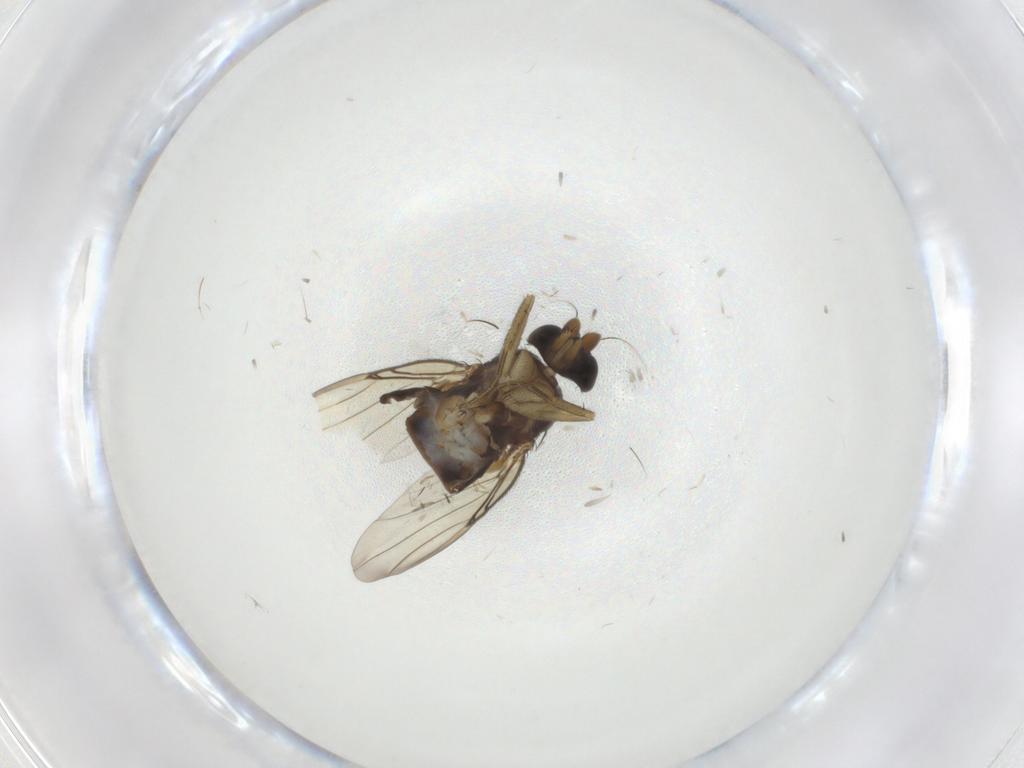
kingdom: Animalia
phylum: Arthropoda
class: Insecta
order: Diptera
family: Phoridae
